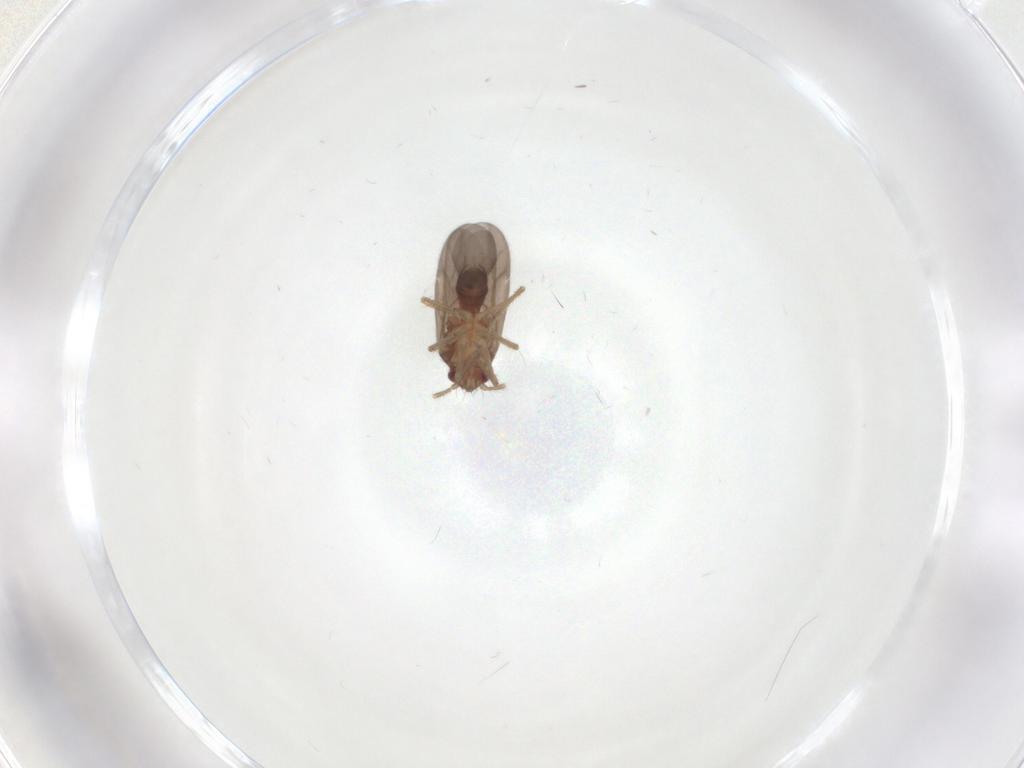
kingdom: Animalia
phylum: Arthropoda
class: Insecta
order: Hemiptera
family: Ceratocombidae
